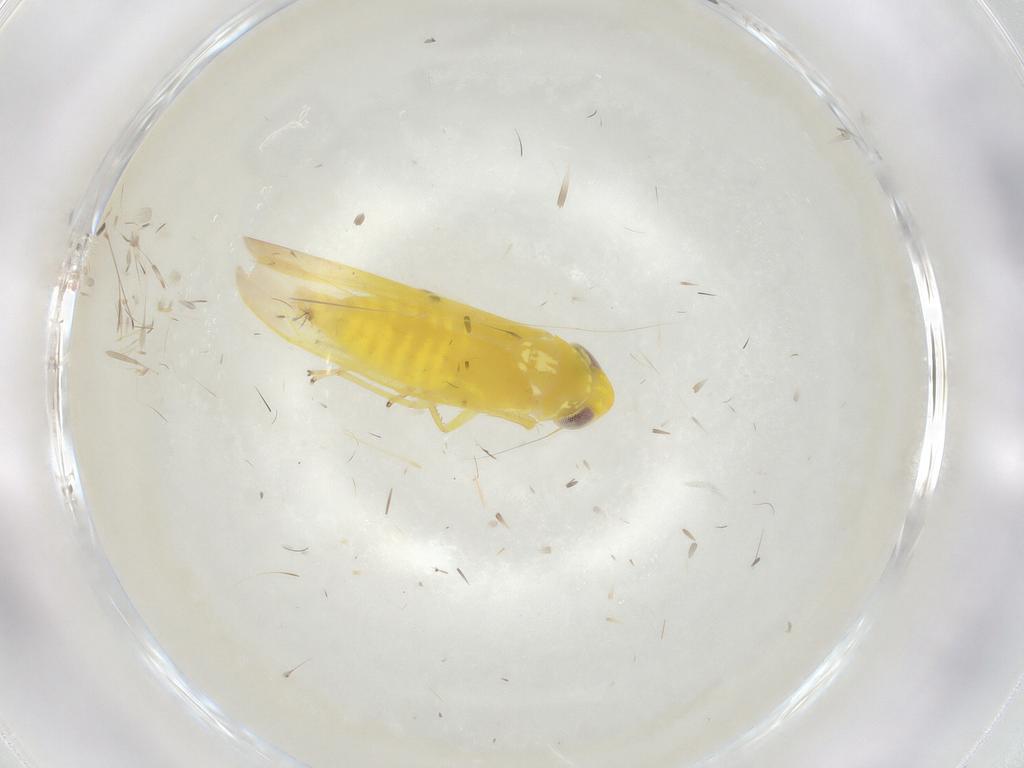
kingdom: Animalia
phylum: Arthropoda
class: Insecta
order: Hemiptera
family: Cicadellidae
